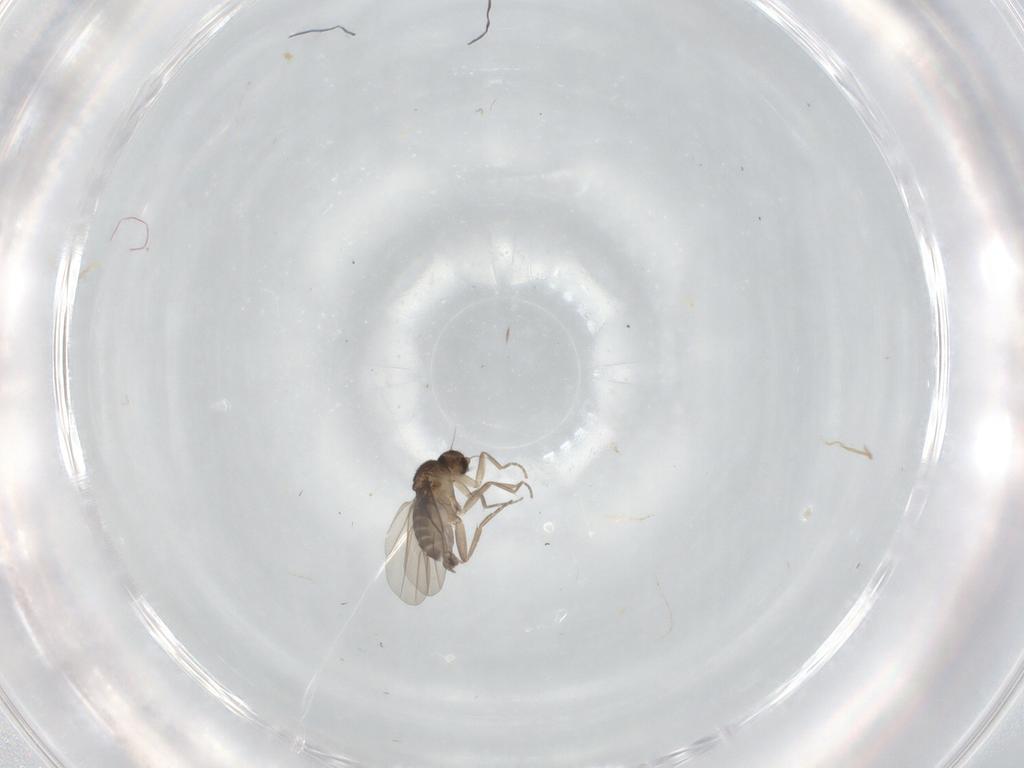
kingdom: Animalia
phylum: Arthropoda
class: Insecta
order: Diptera
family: Phoridae
